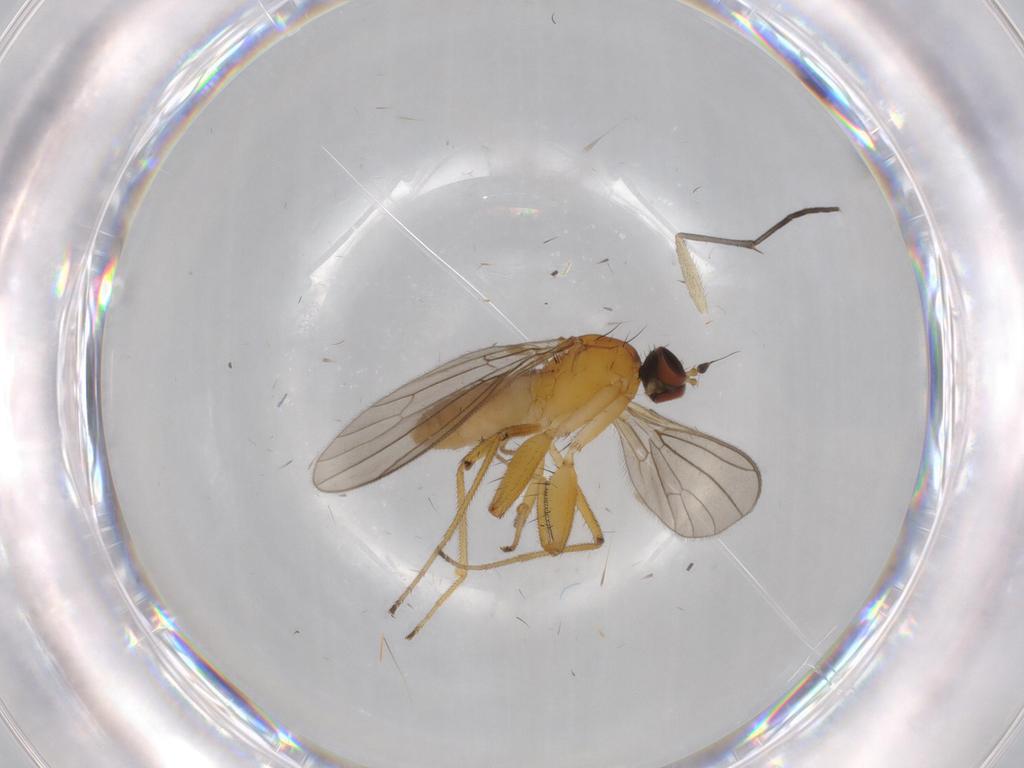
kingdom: Animalia
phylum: Arthropoda
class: Insecta
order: Diptera
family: Empididae
